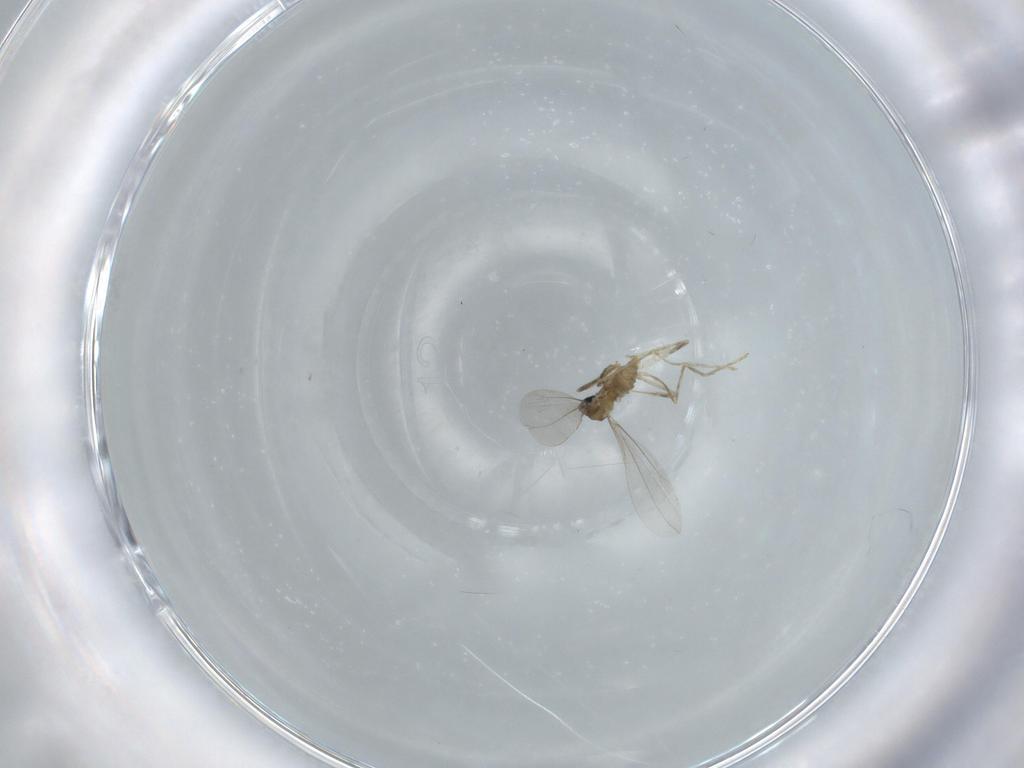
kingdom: Animalia
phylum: Arthropoda
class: Insecta
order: Diptera
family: Cecidomyiidae
